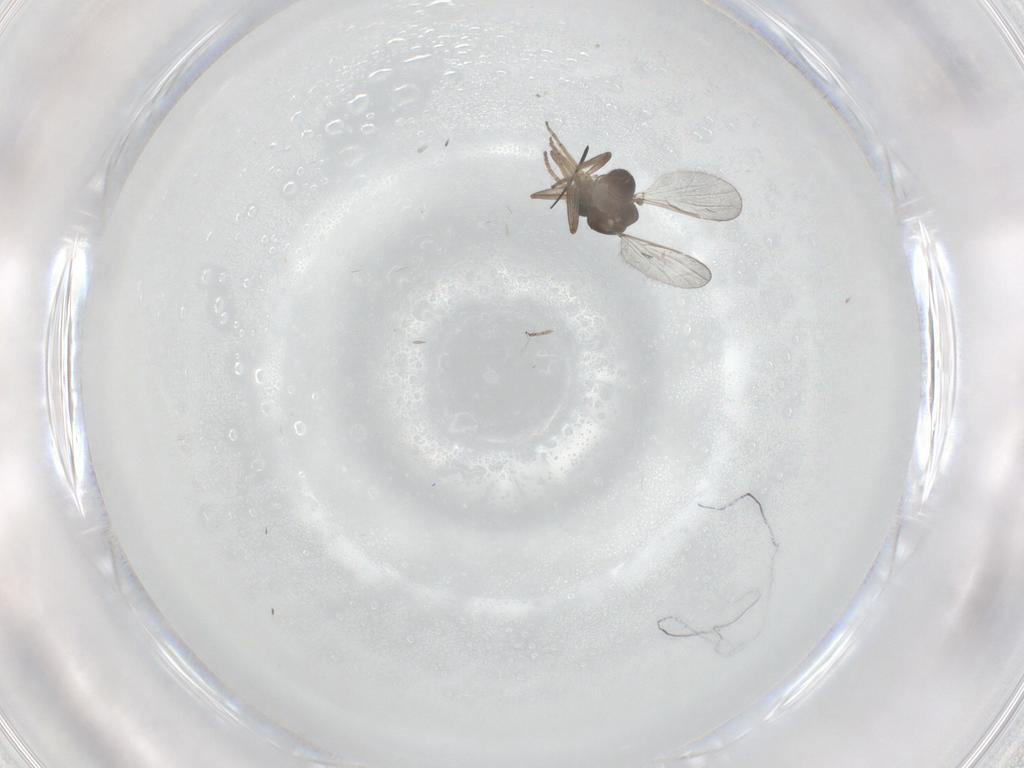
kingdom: Animalia
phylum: Arthropoda
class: Insecta
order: Diptera
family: Ceratopogonidae
